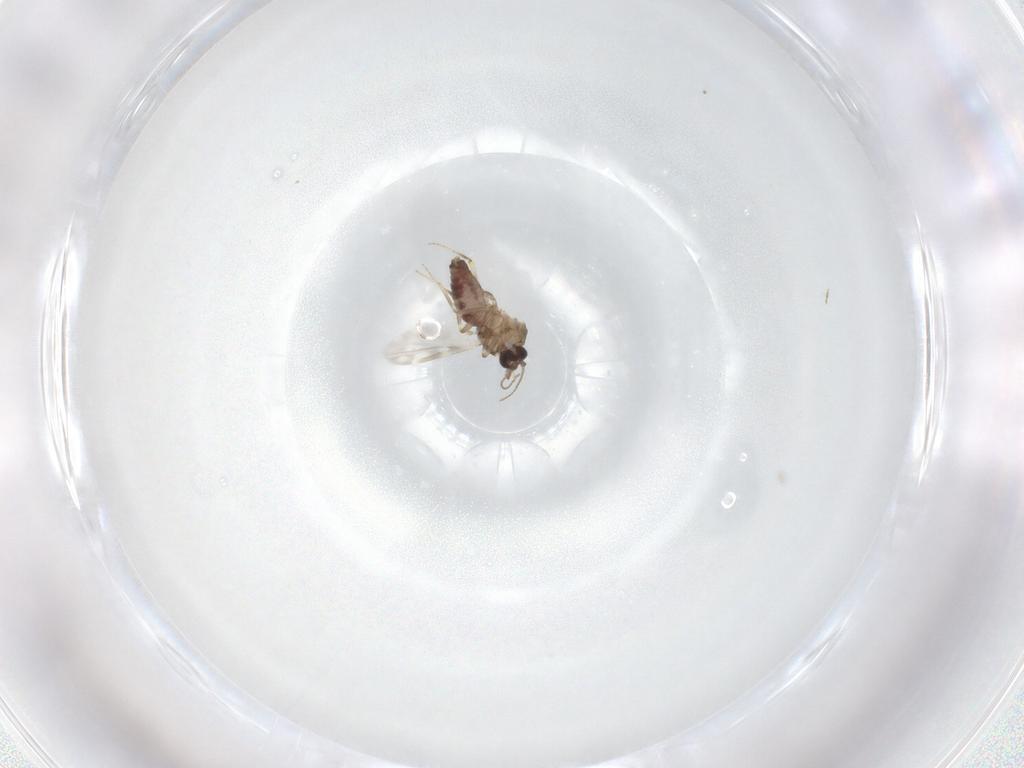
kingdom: Animalia
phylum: Arthropoda
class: Insecta
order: Diptera
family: Ceratopogonidae
